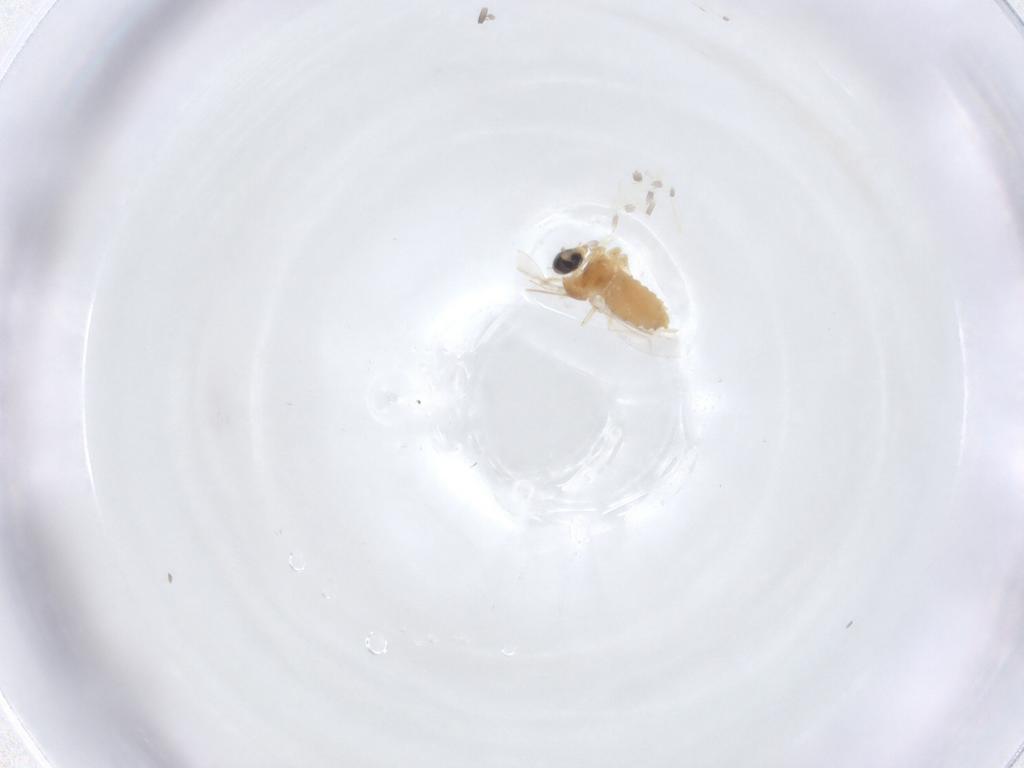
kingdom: Animalia
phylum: Arthropoda
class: Insecta
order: Diptera
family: Cecidomyiidae
